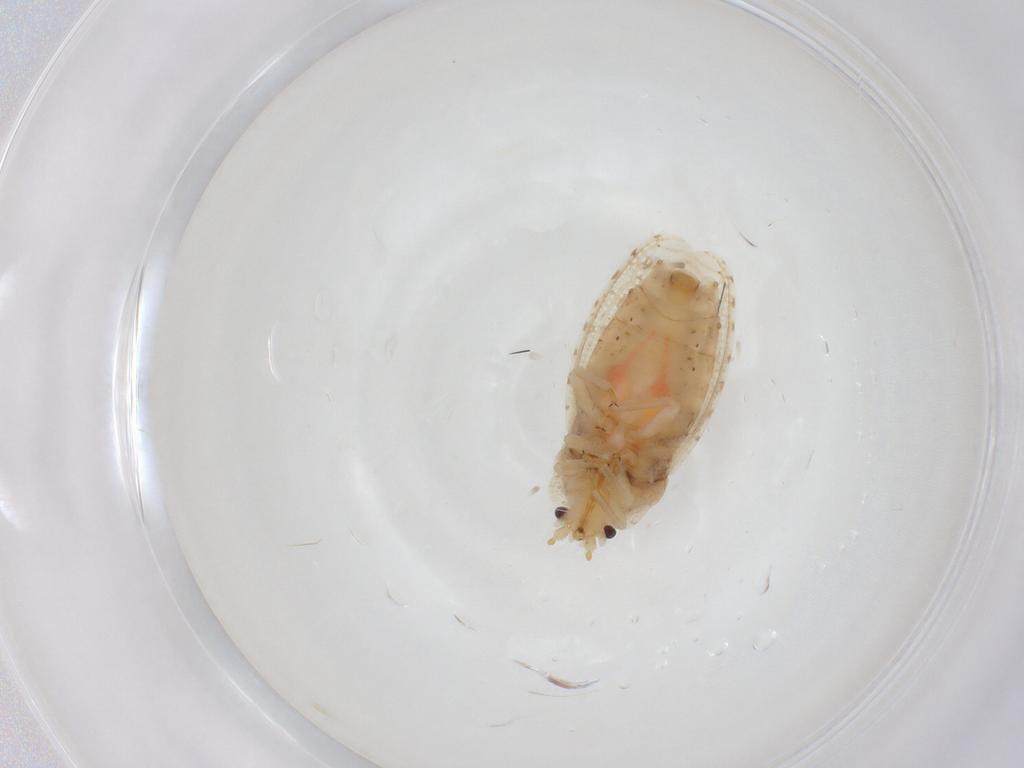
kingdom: Animalia
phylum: Arthropoda
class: Insecta
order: Lepidoptera
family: Noctuidae
